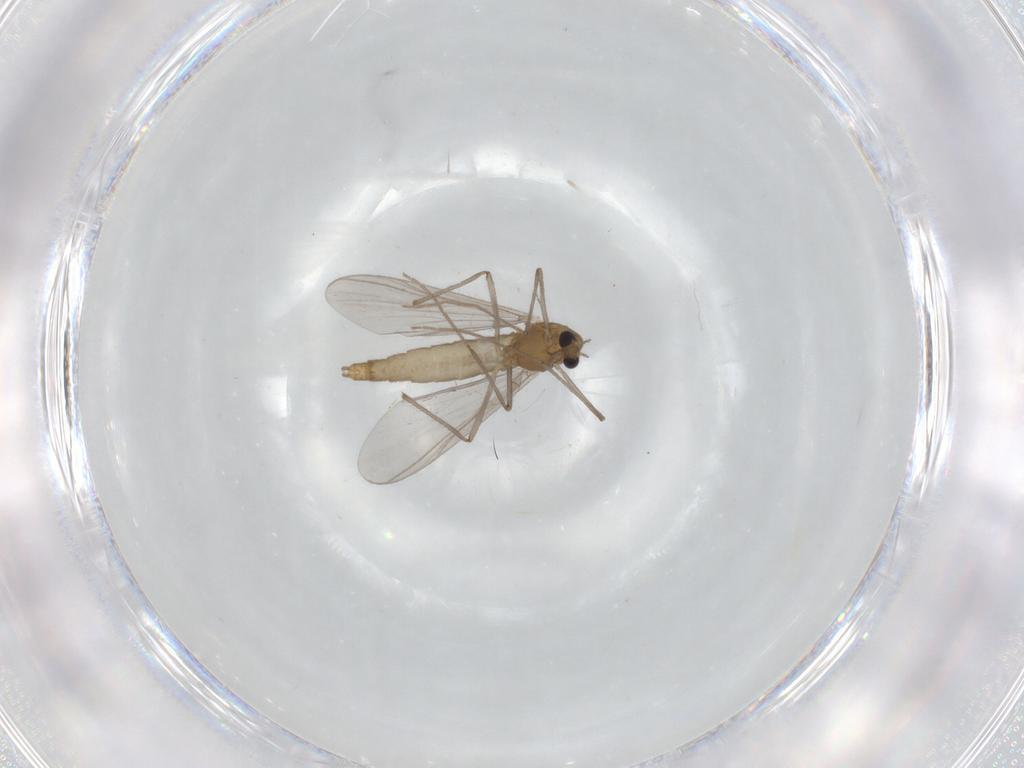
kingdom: Animalia
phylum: Arthropoda
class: Insecta
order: Diptera
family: Chironomidae
